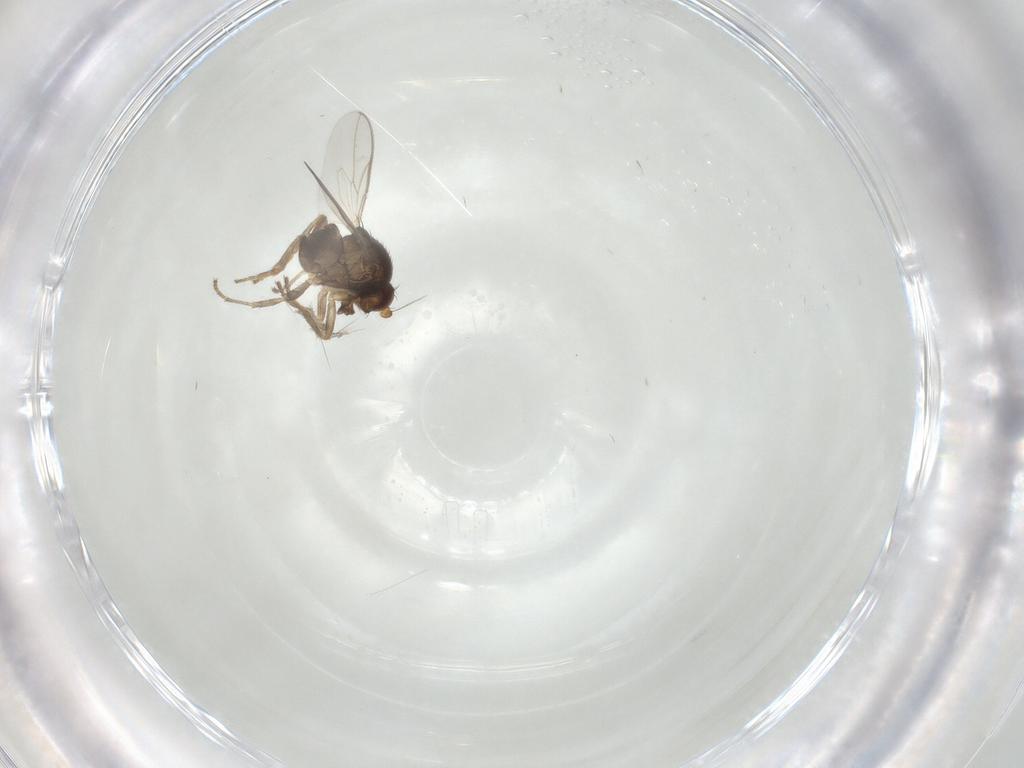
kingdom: Animalia
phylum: Arthropoda
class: Insecta
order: Diptera
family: Sphaeroceridae
